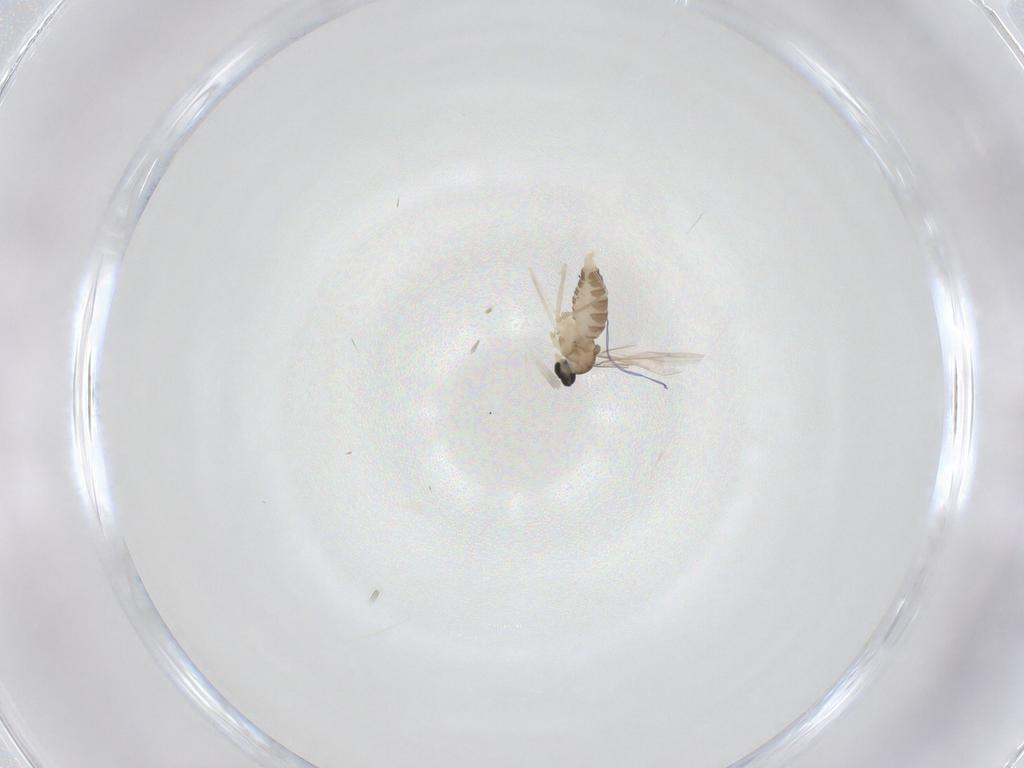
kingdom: Animalia
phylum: Arthropoda
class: Insecta
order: Diptera
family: Cecidomyiidae
